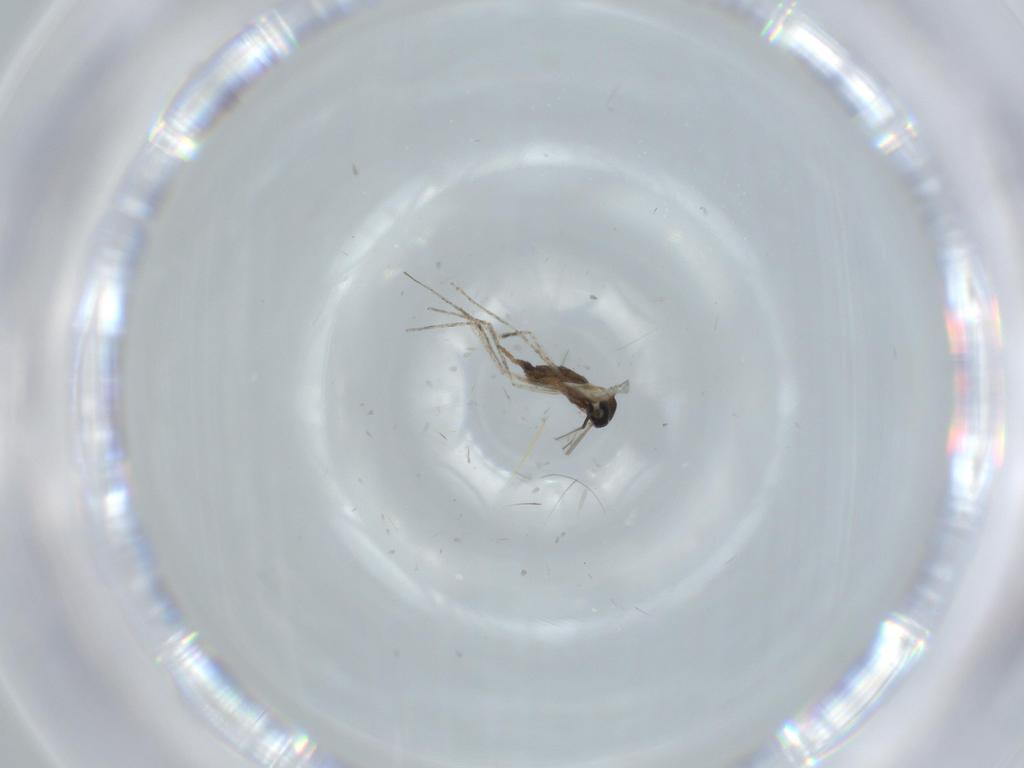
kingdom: Animalia
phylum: Arthropoda
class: Insecta
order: Diptera
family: Cecidomyiidae
